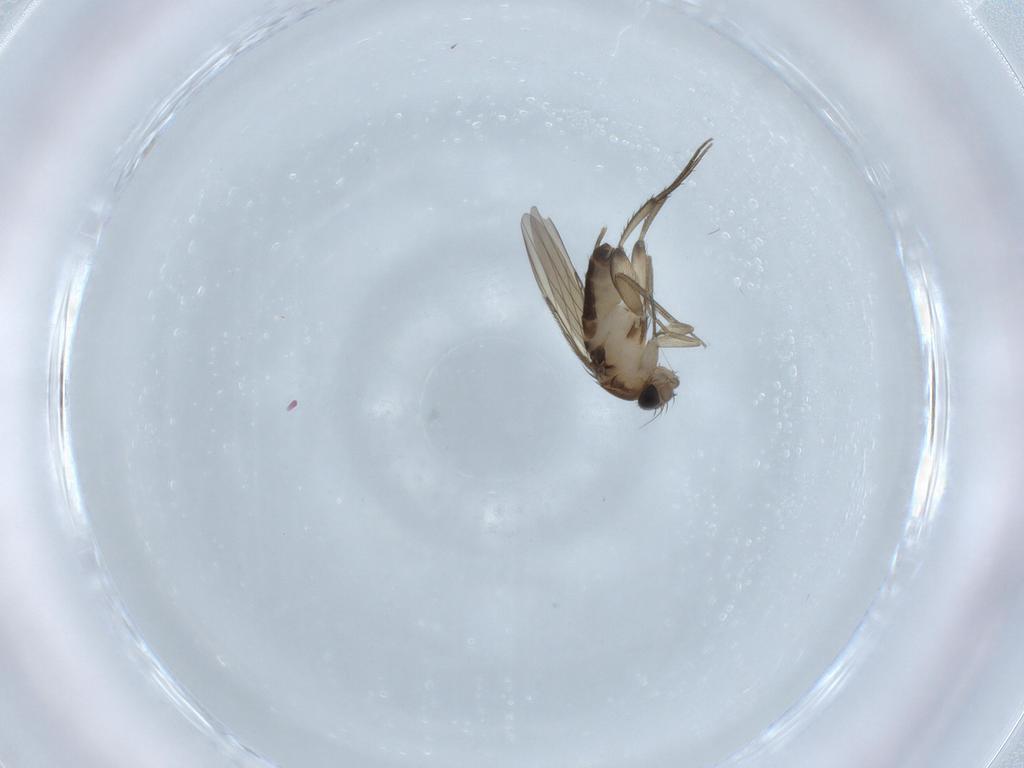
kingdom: Animalia
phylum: Arthropoda
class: Insecta
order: Diptera
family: Phoridae
